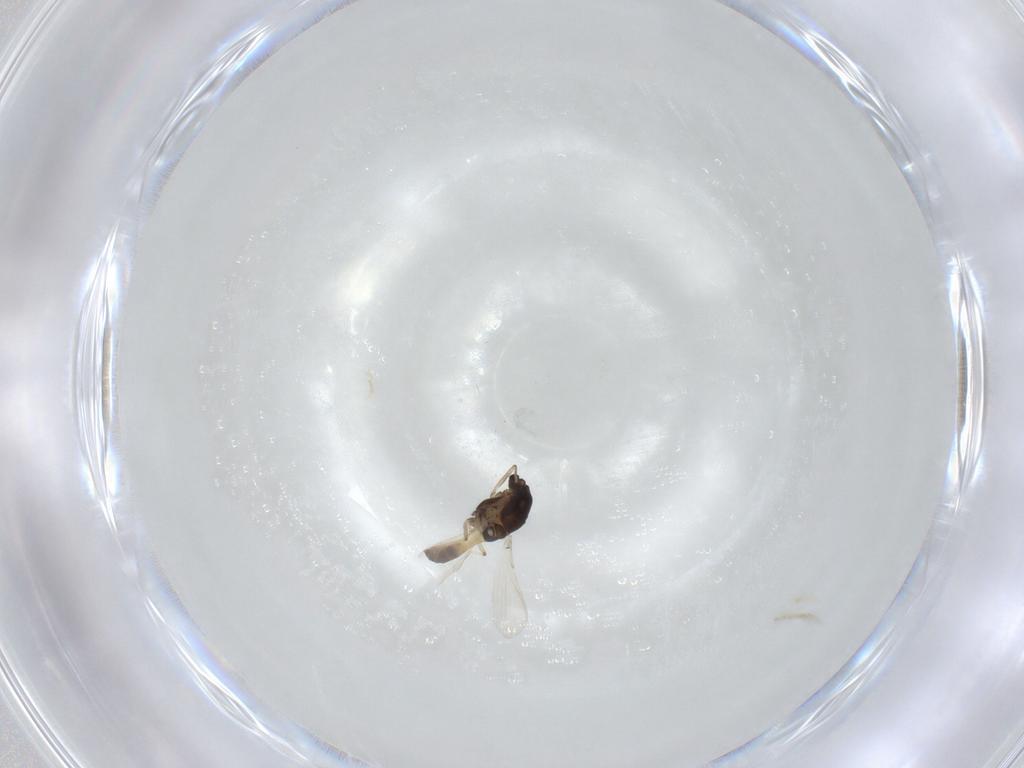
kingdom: Animalia
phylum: Arthropoda
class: Insecta
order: Diptera
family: Chironomidae
